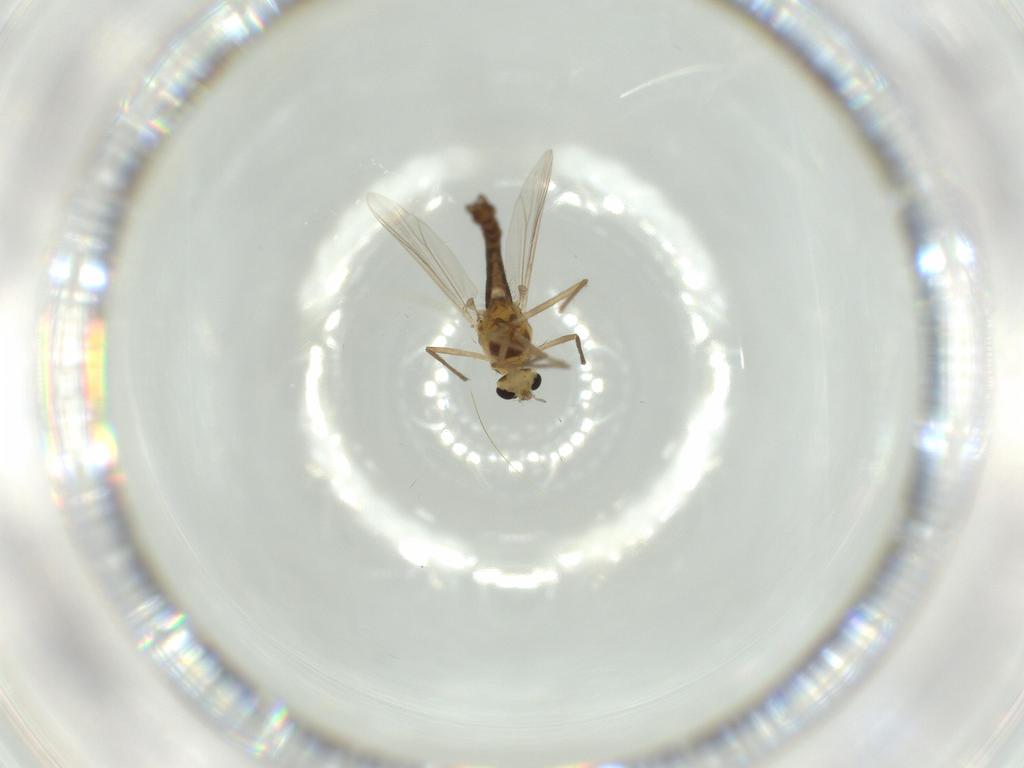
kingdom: Animalia
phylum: Arthropoda
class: Insecta
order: Diptera
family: Chironomidae
